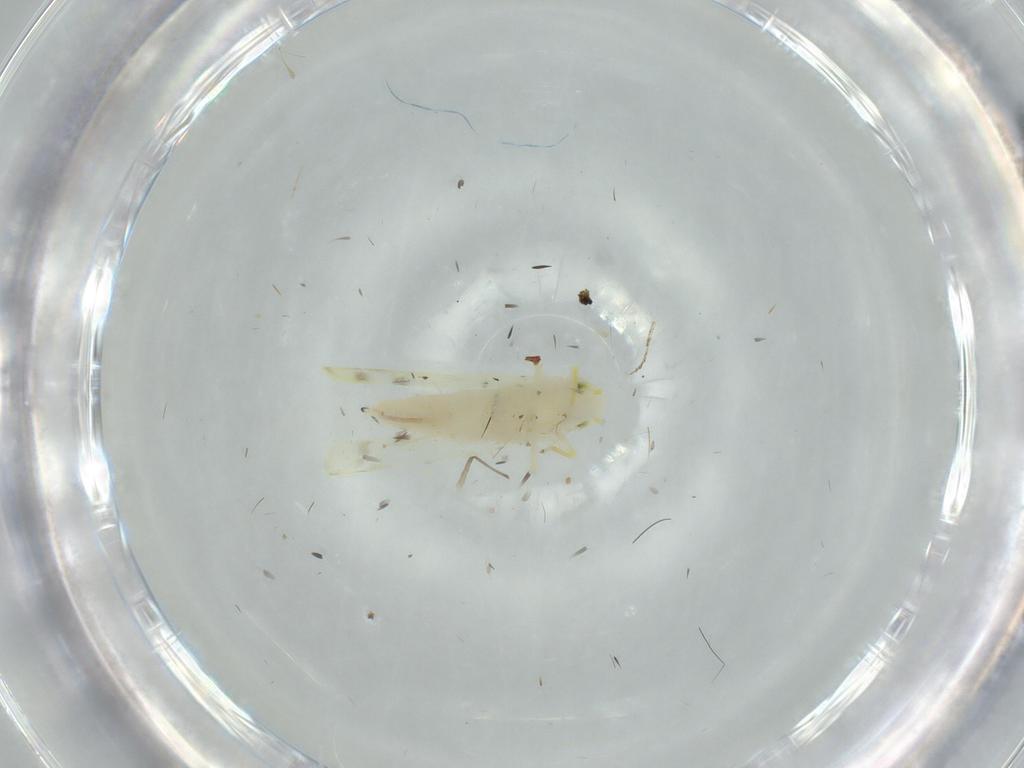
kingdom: Animalia
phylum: Arthropoda
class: Insecta
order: Hemiptera
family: Cicadellidae
